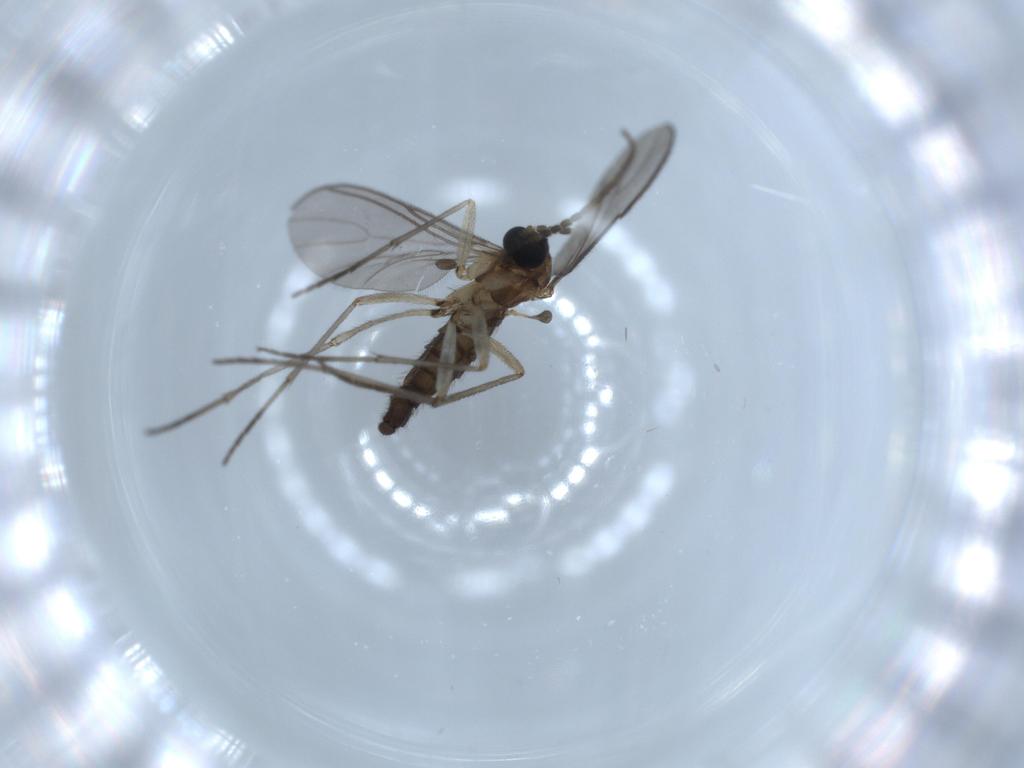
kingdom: Animalia
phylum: Arthropoda
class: Insecta
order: Diptera
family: Sciaridae
